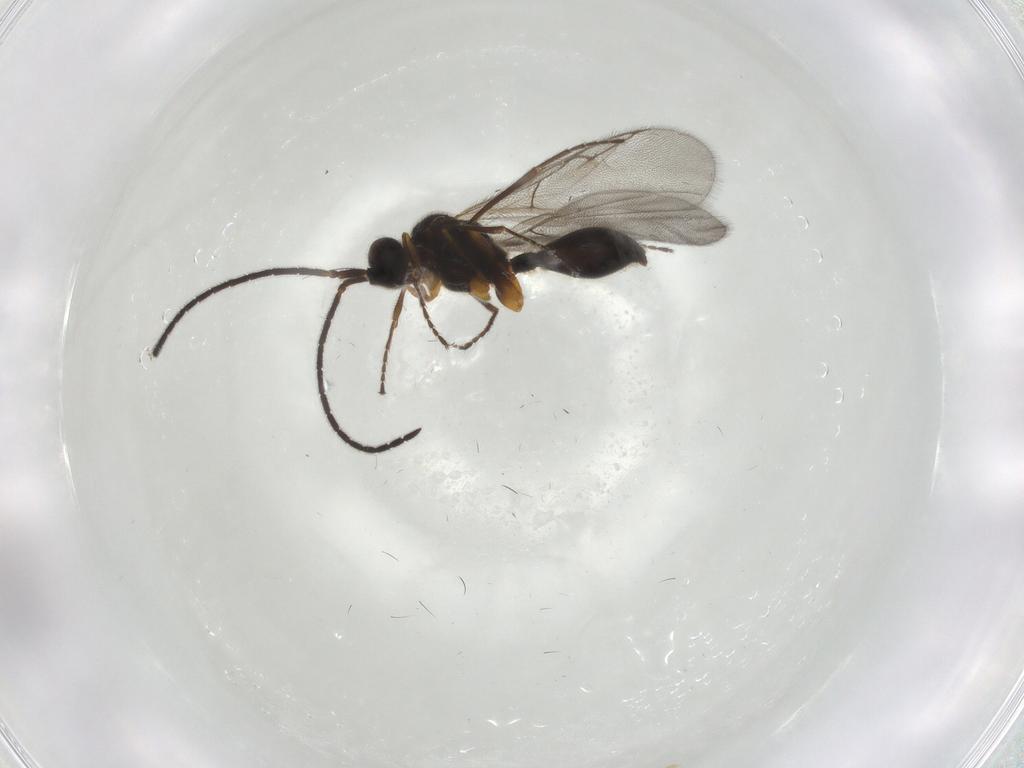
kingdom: Animalia
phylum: Arthropoda
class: Insecta
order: Hymenoptera
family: Diapriidae
